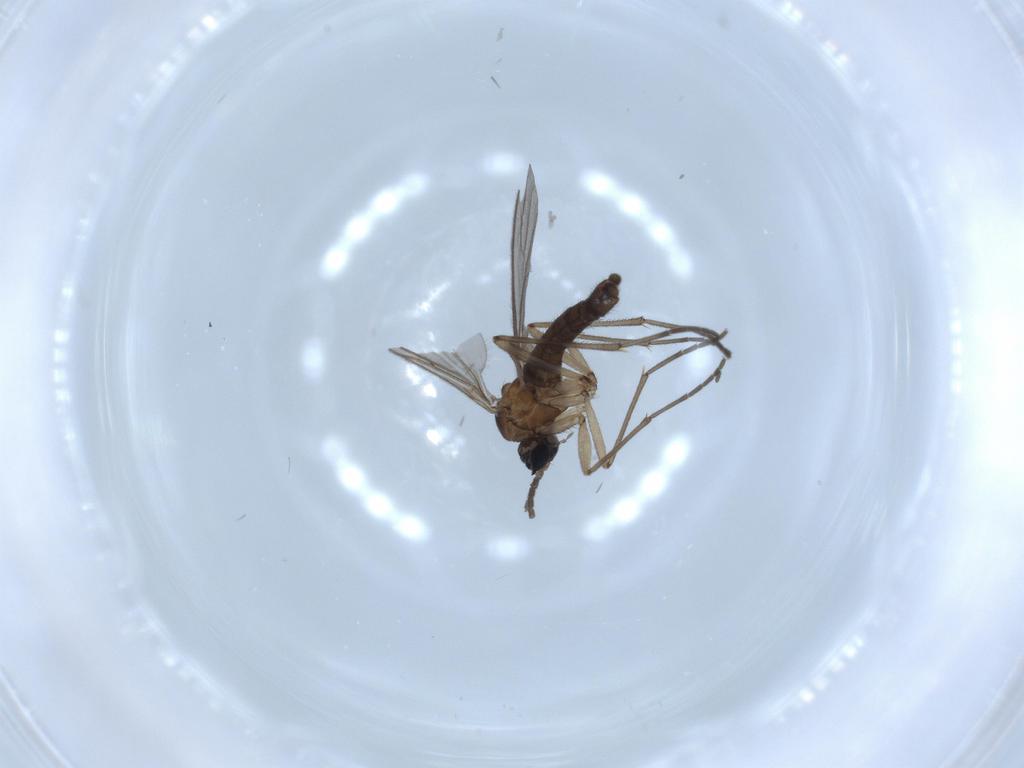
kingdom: Animalia
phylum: Arthropoda
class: Insecta
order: Diptera
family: Sciaridae
